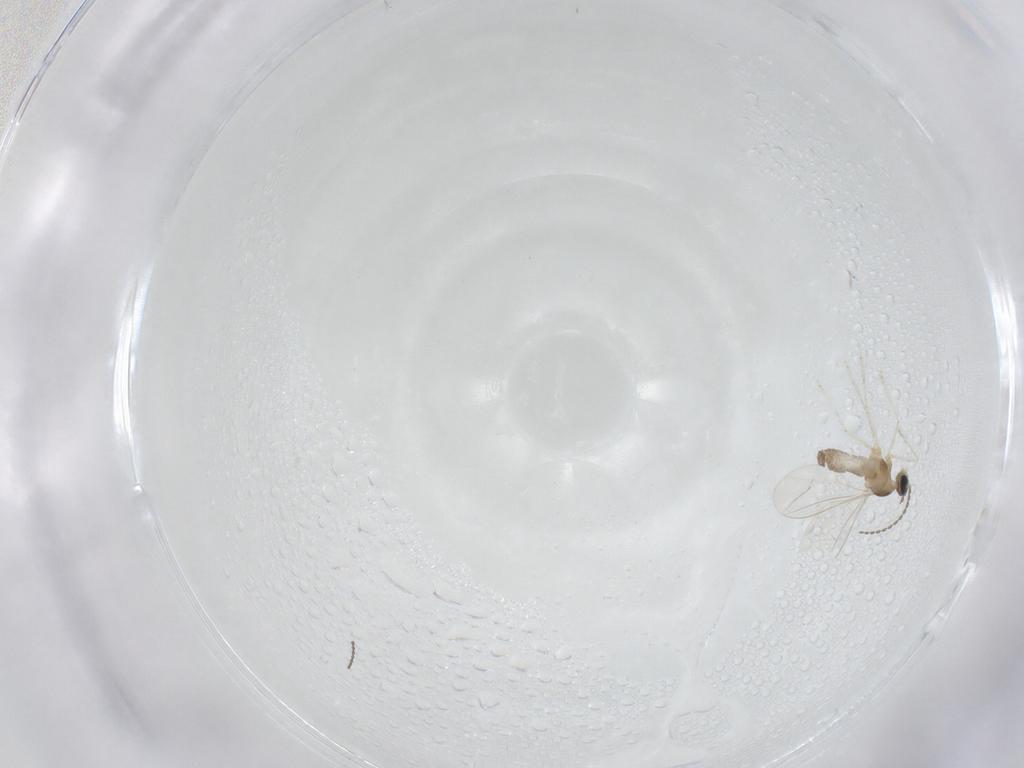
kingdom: Animalia
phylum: Arthropoda
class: Insecta
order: Diptera
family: Cecidomyiidae
